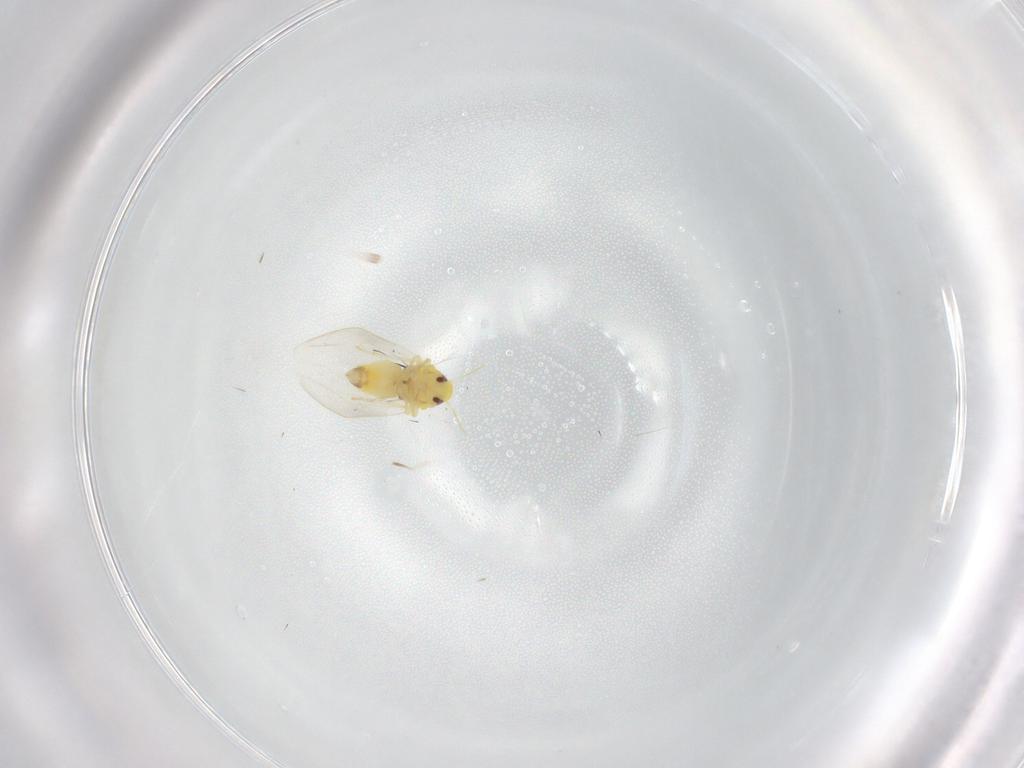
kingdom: Animalia
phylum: Arthropoda
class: Insecta
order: Hemiptera
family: Aleyrodidae
